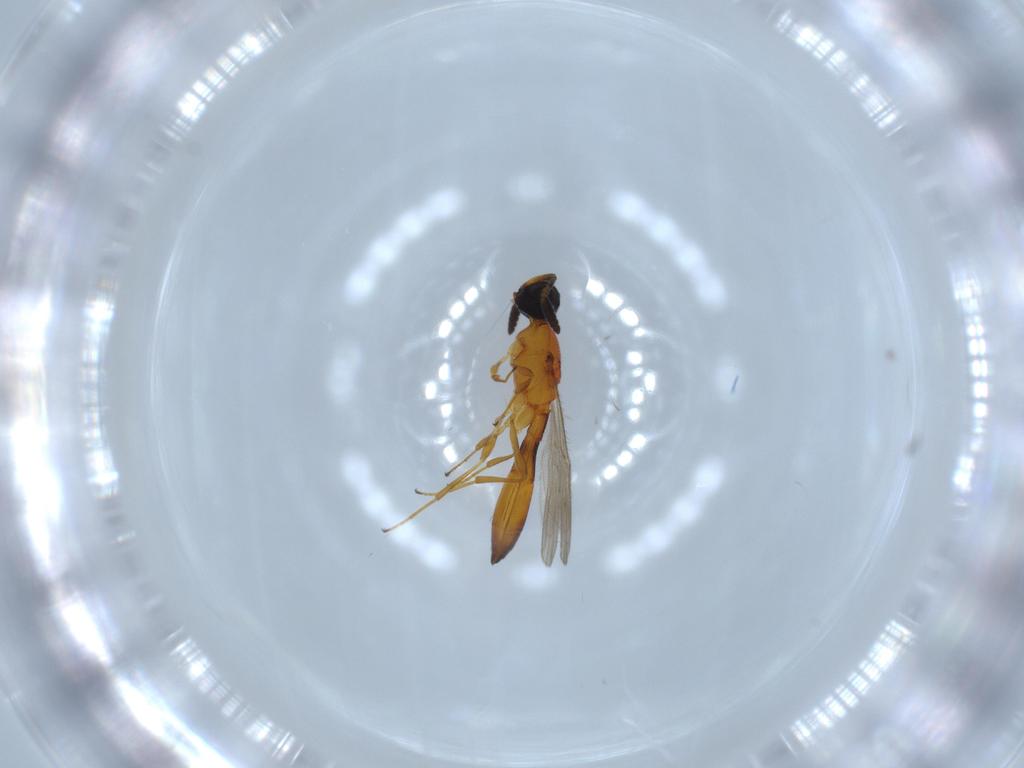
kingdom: Animalia
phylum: Arthropoda
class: Insecta
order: Hymenoptera
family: Scelionidae
